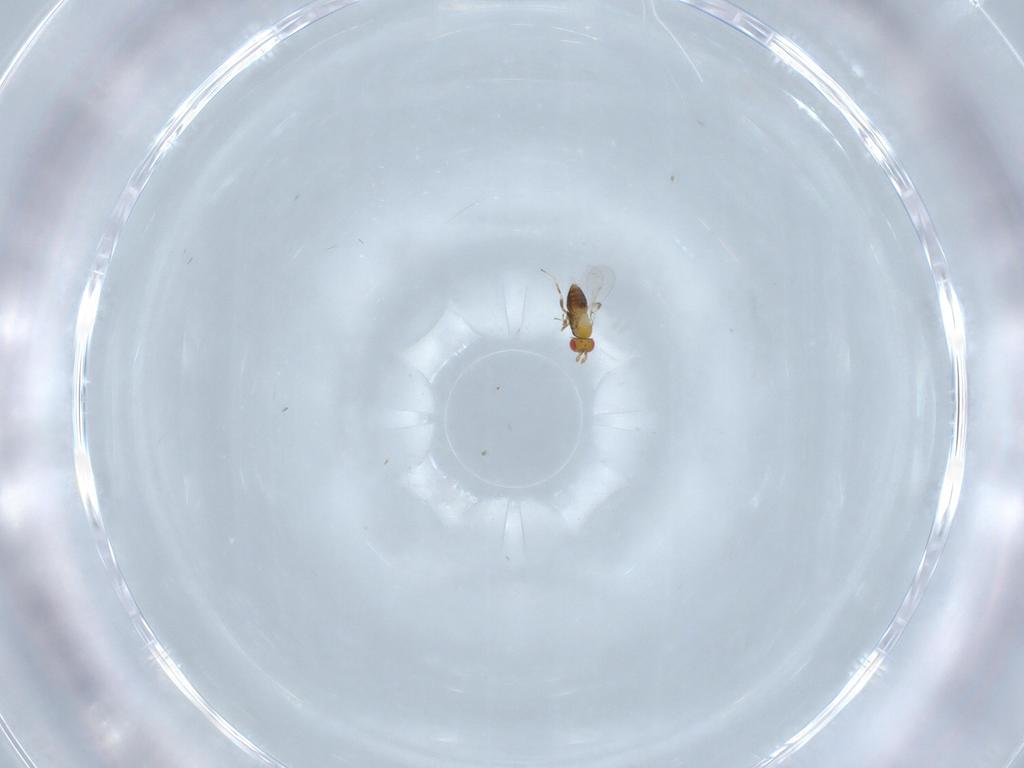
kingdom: Animalia
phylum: Arthropoda
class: Insecta
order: Hymenoptera
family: Trichogrammatidae
